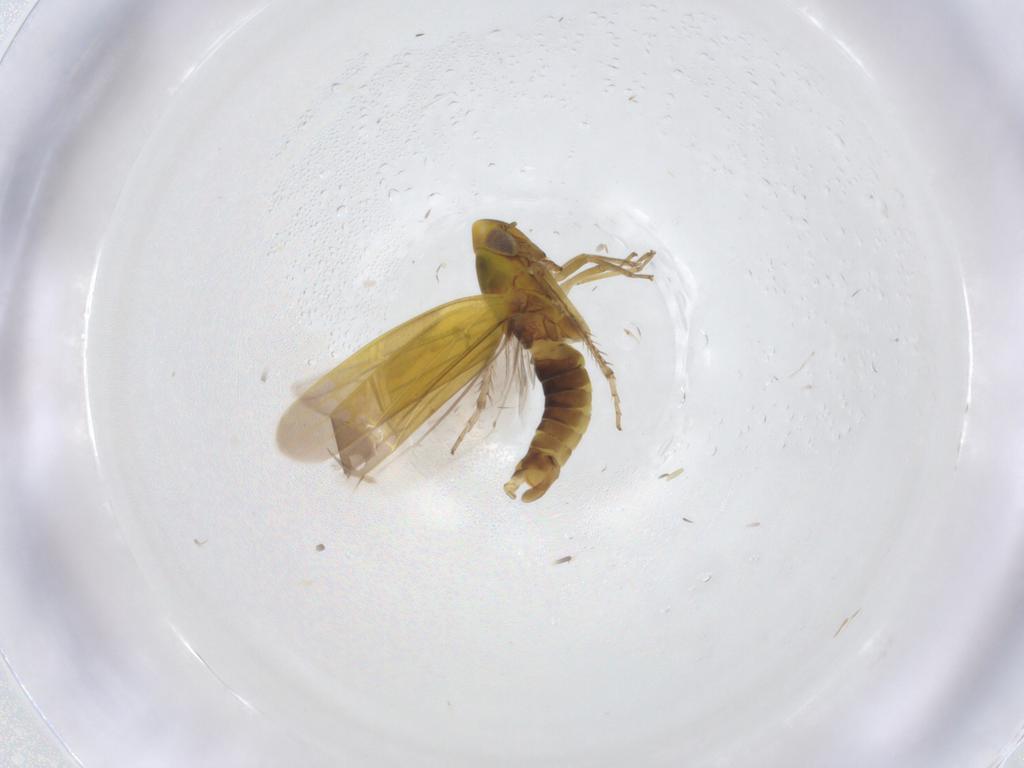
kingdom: Animalia
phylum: Arthropoda
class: Insecta
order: Hemiptera
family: Cicadellidae
